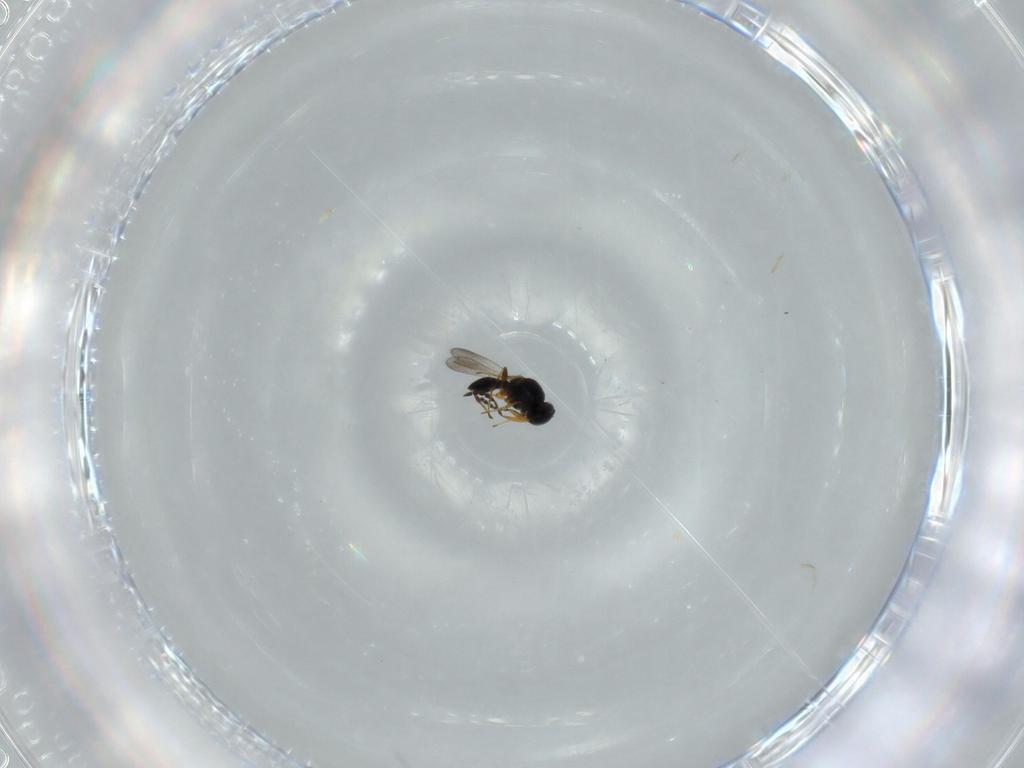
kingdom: Animalia
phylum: Arthropoda
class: Insecta
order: Hymenoptera
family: Platygastridae
